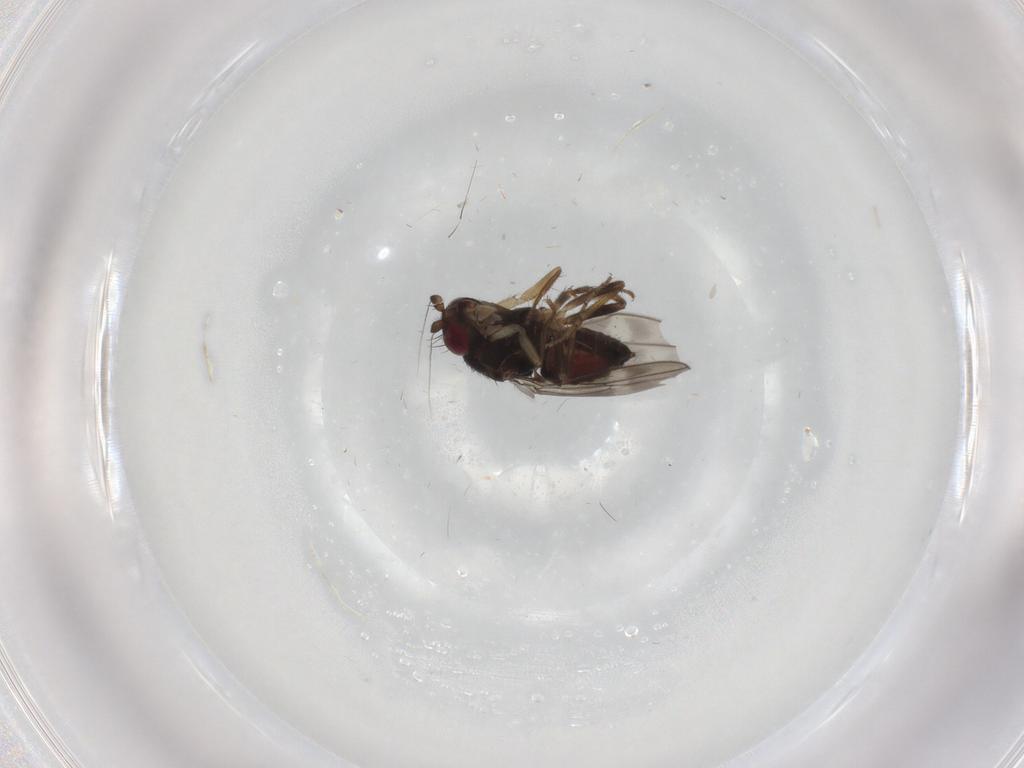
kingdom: Animalia
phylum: Arthropoda
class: Insecta
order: Diptera
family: Sphaeroceridae
